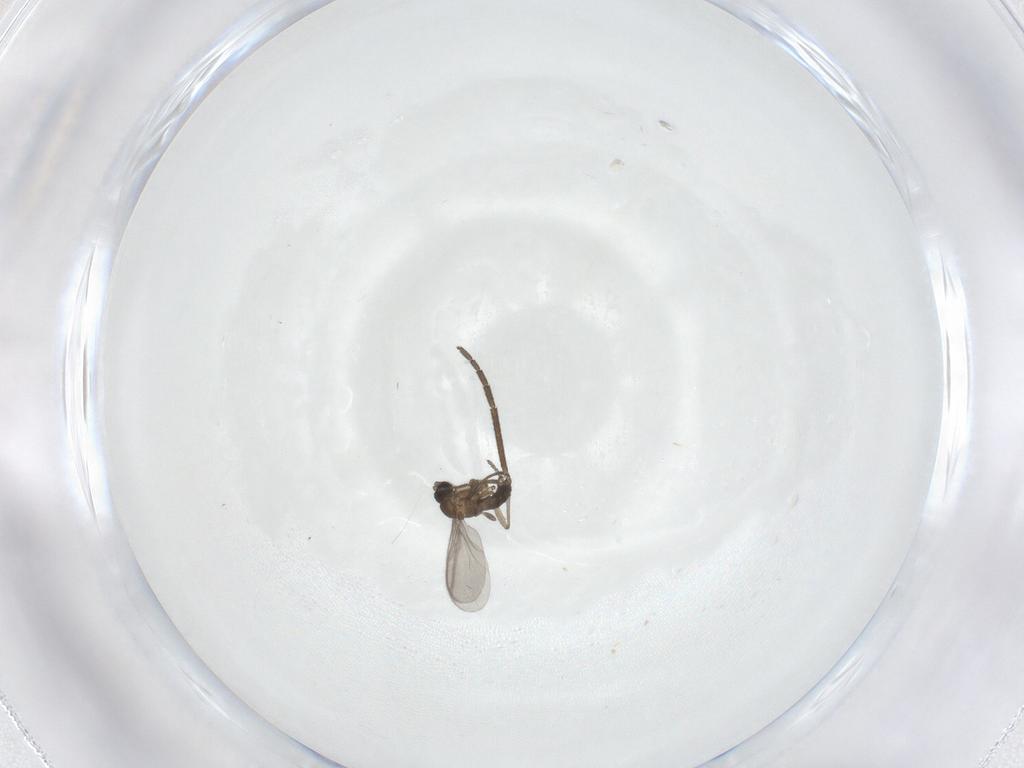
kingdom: Animalia
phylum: Arthropoda
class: Insecta
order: Diptera
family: Sciaridae
